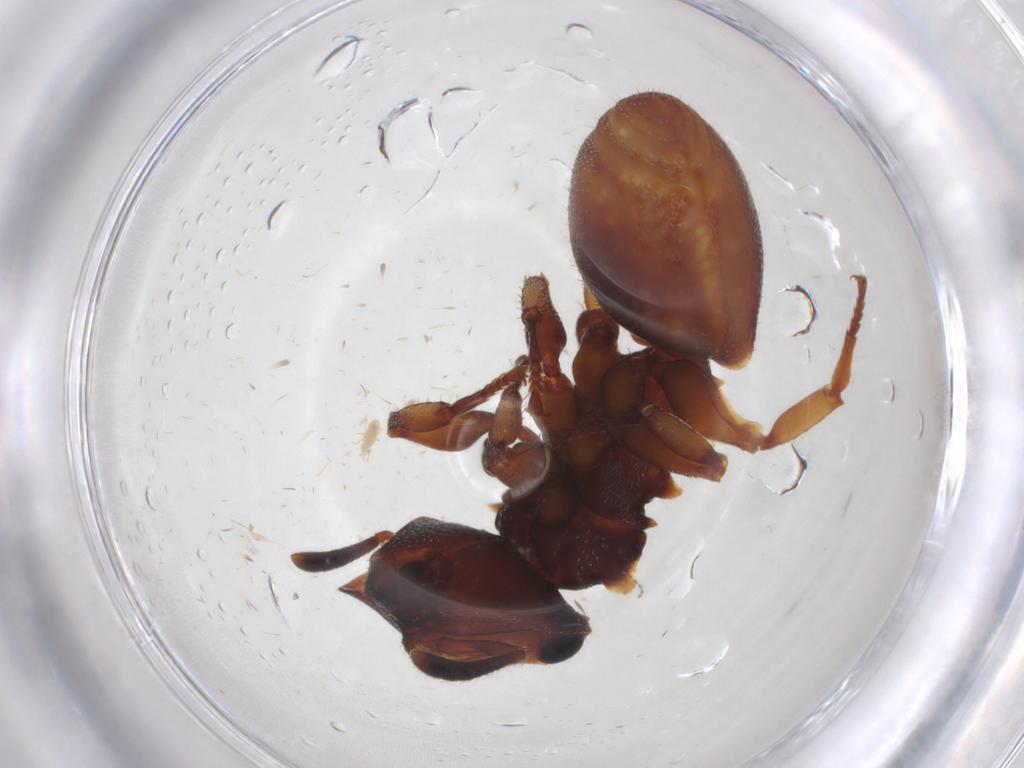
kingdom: Animalia
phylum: Arthropoda
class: Insecta
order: Hymenoptera
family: Formicidae
